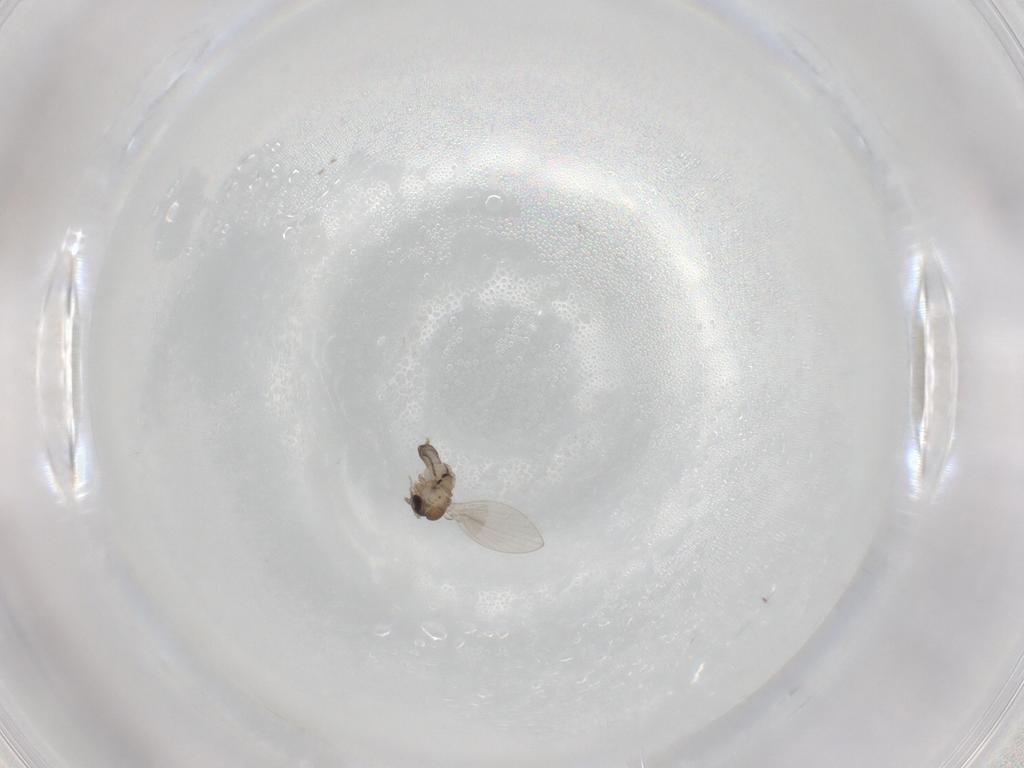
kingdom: Animalia
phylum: Arthropoda
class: Insecta
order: Diptera
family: Psychodidae
